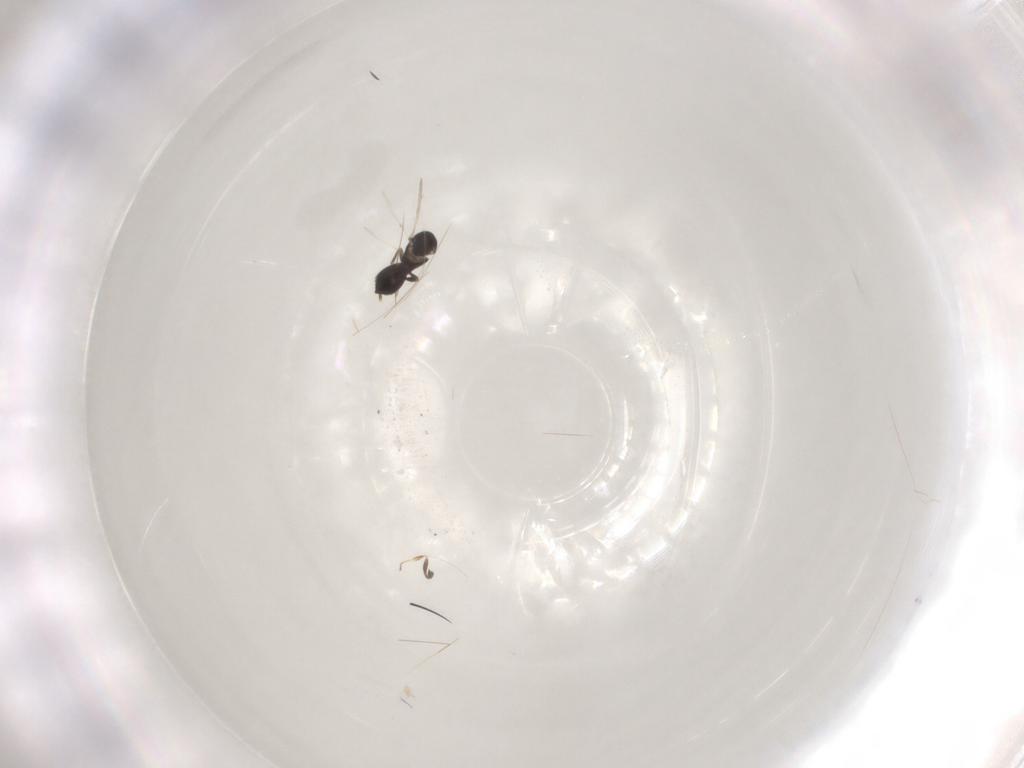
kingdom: Animalia
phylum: Arthropoda
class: Insecta
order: Hymenoptera
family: Scelionidae
